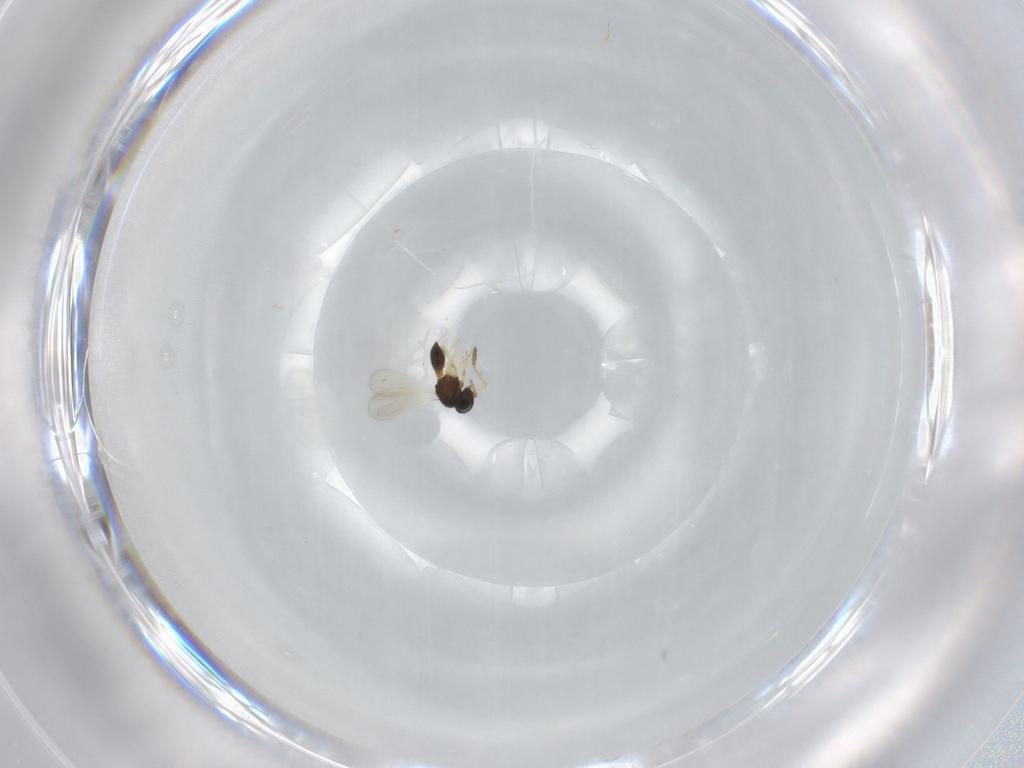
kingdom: Animalia
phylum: Arthropoda
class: Insecta
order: Hymenoptera
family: Scelionidae
